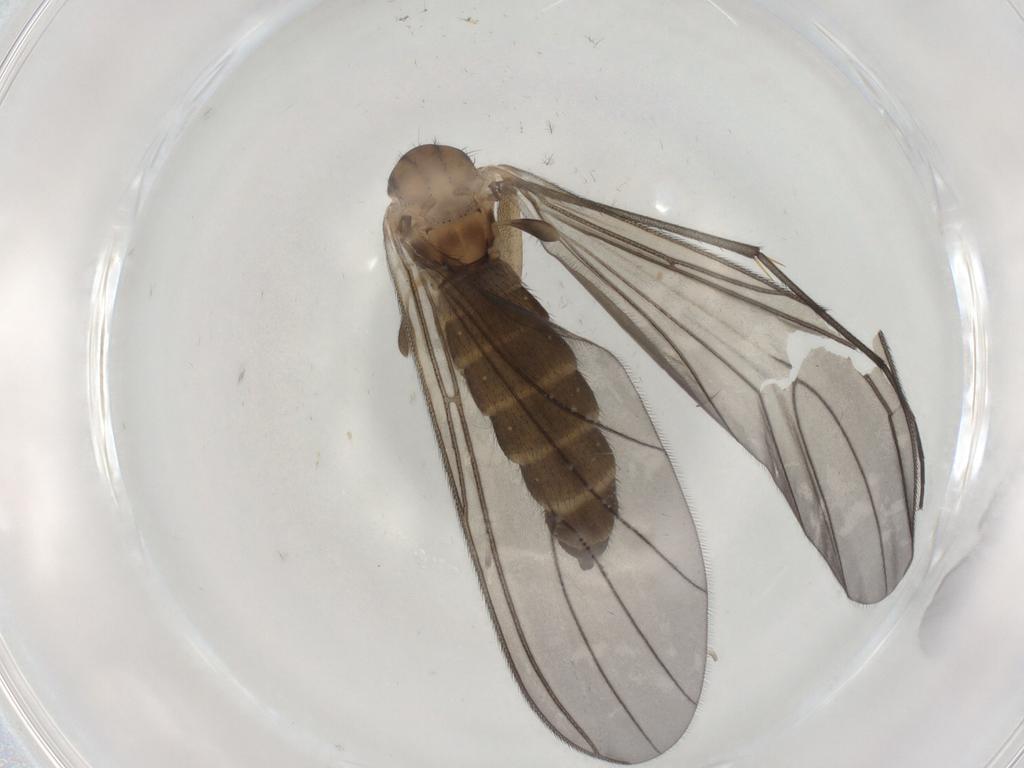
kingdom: Animalia
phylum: Arthropoda
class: Insecta
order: Diptera
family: Sciaridae
